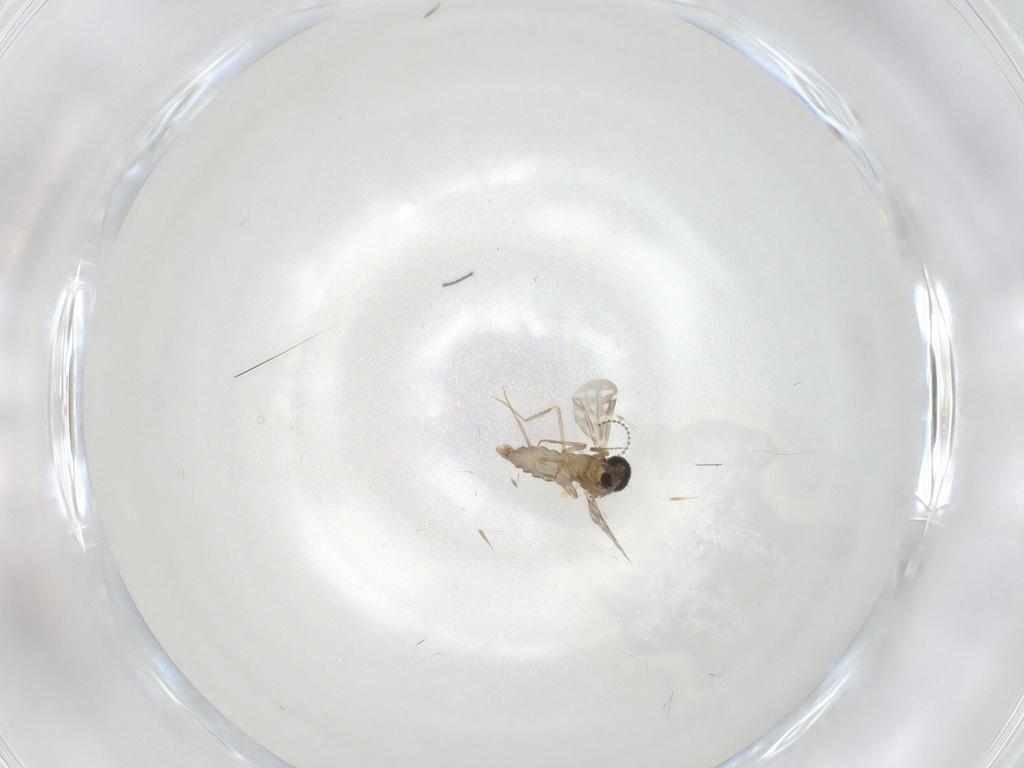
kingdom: Animalia
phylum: Arthropoda
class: Insecta
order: Diptera
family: Cecidomyiidae
